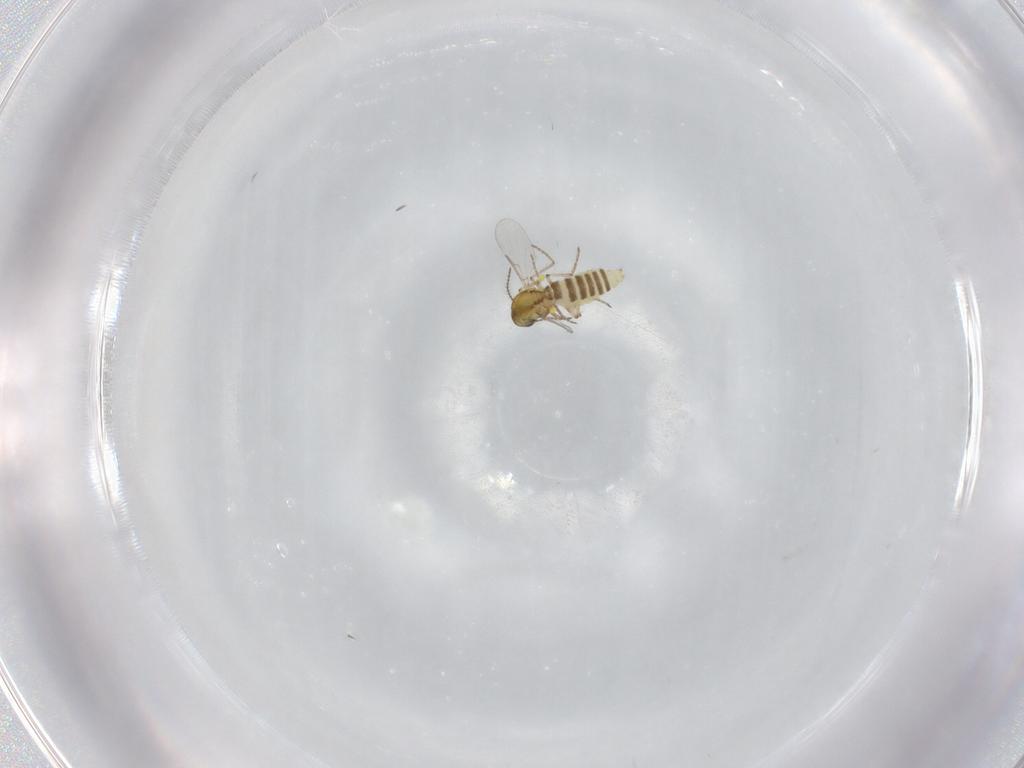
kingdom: Animalia
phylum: Arthropoda
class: Insecta
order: Diptera
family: Ceratopogonidae
